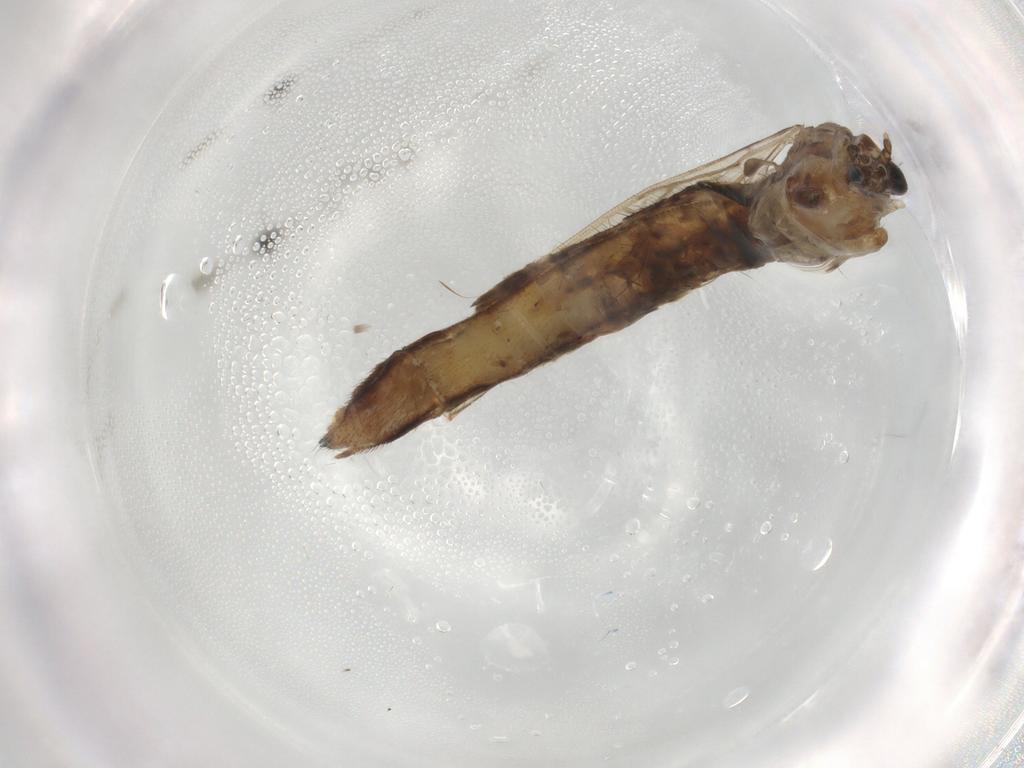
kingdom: Animalia
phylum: Arthropoda
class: Insecta
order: Diptera
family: Limoniidae
